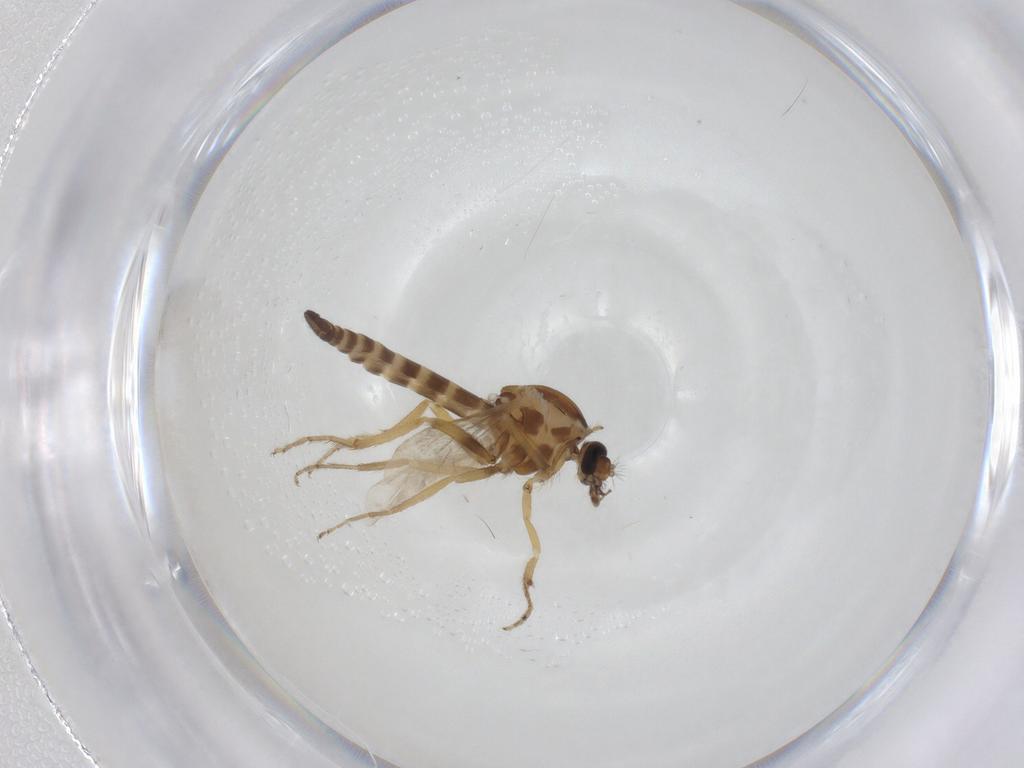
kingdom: Animalia
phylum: Arthropoda
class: Insecta
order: Diptera
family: Ceratopogonidae
